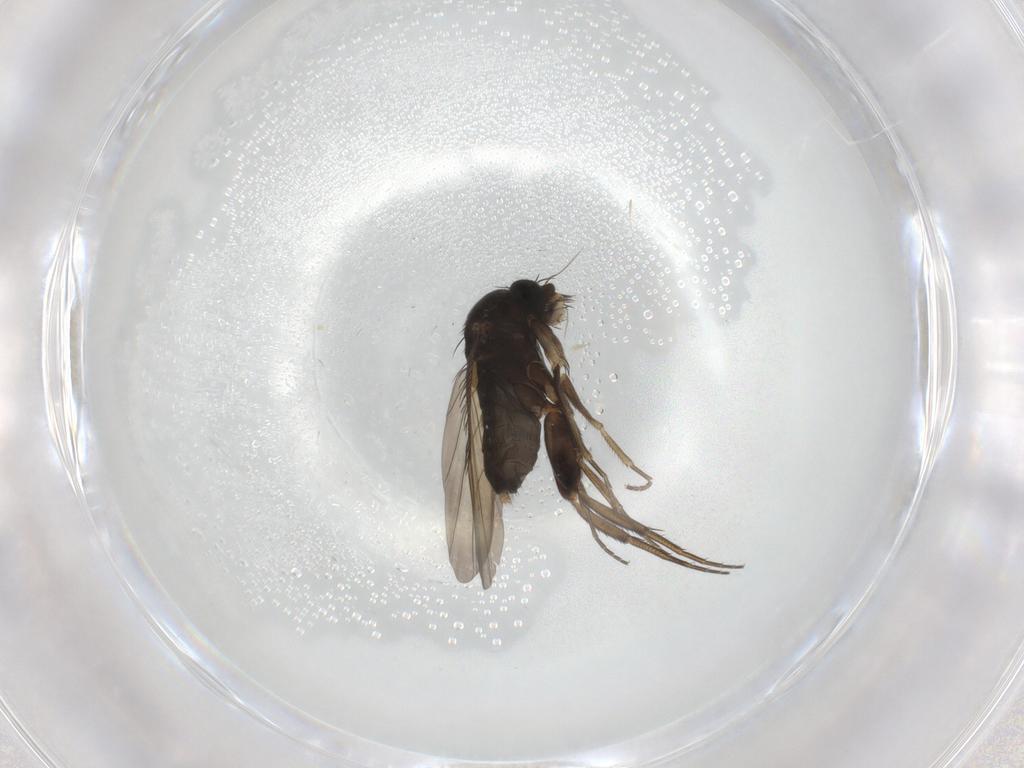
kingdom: Animalia
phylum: Arthropoda
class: Insecta
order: Diptera
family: Phoridae
